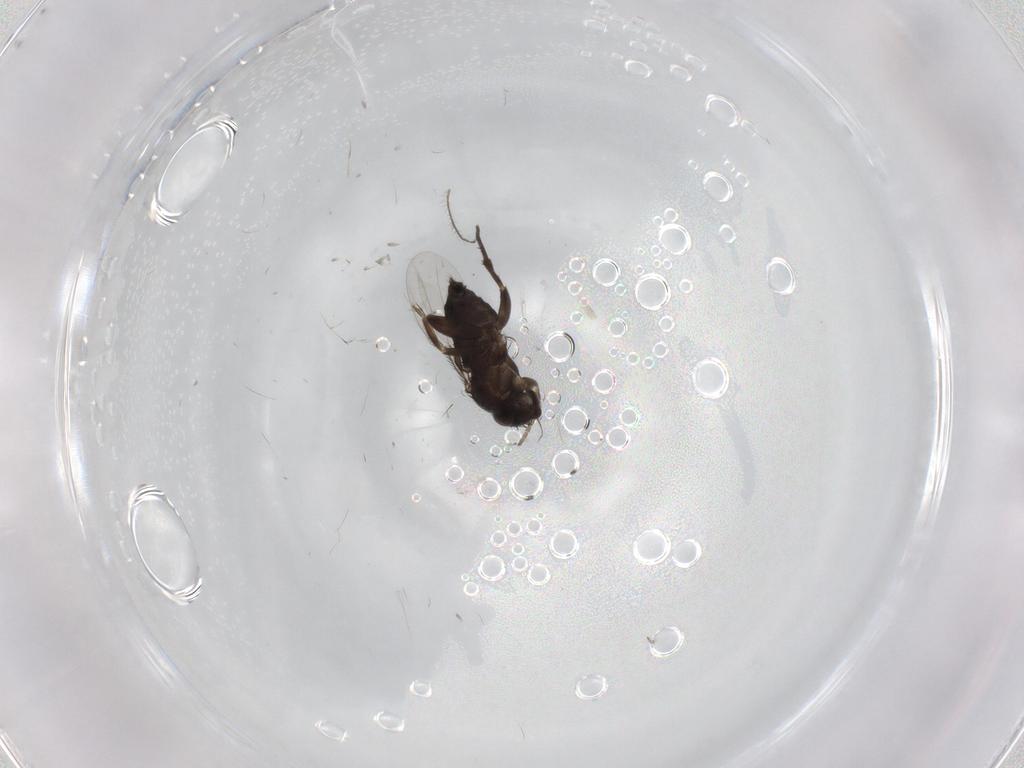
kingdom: Animalia
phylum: Arthropoda
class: Insecta
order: Diptera
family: Phoridae
